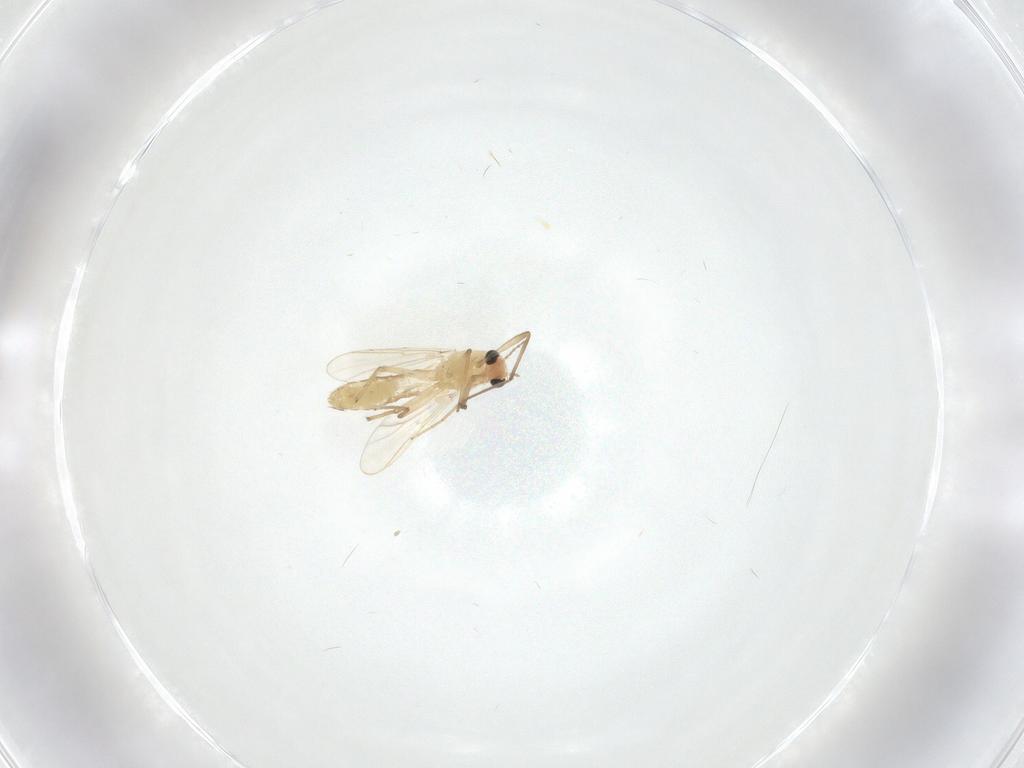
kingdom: Animalia
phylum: Arthropoda
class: Insecta
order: Diptera
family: Chironomidae
